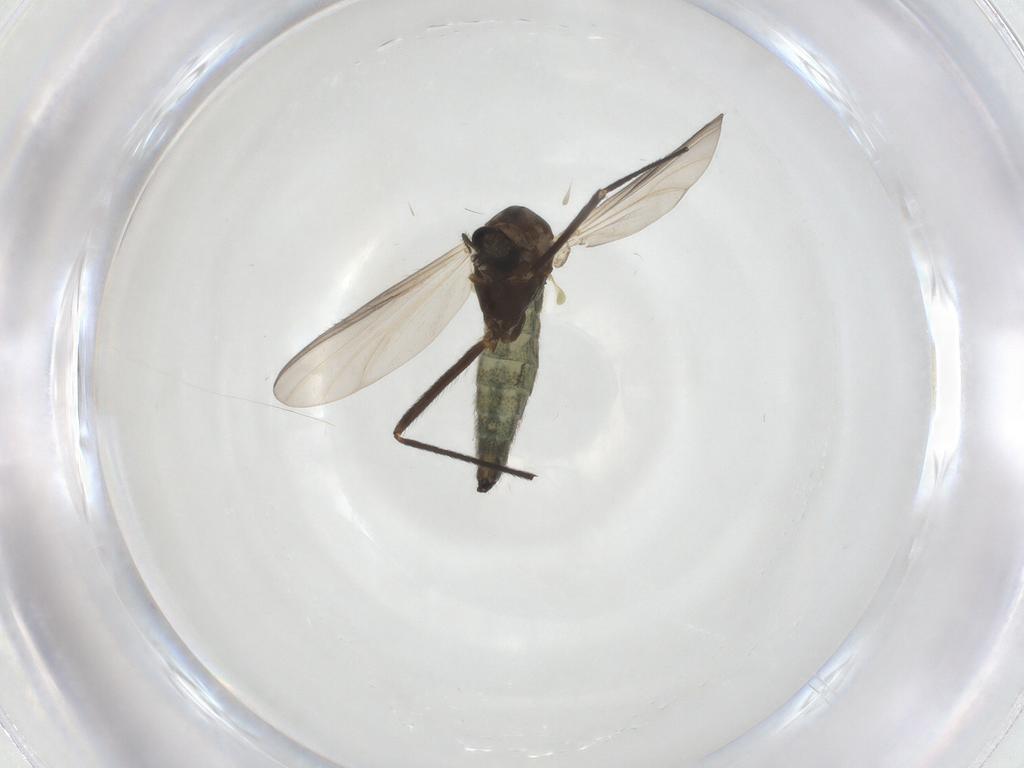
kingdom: Animalia
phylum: Arthropoda
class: Insecta
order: Diptera
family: Chironomidae
